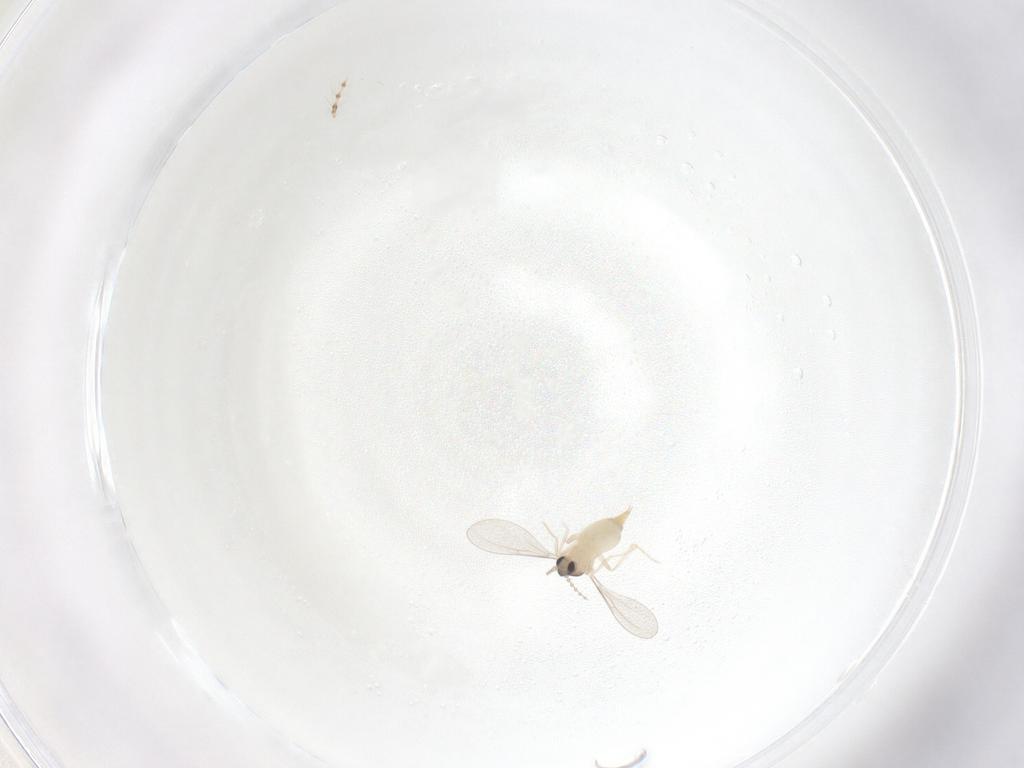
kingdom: Animalia
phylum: Arthropoda
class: Insecta
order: Diptera
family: Cecidomyiidae
